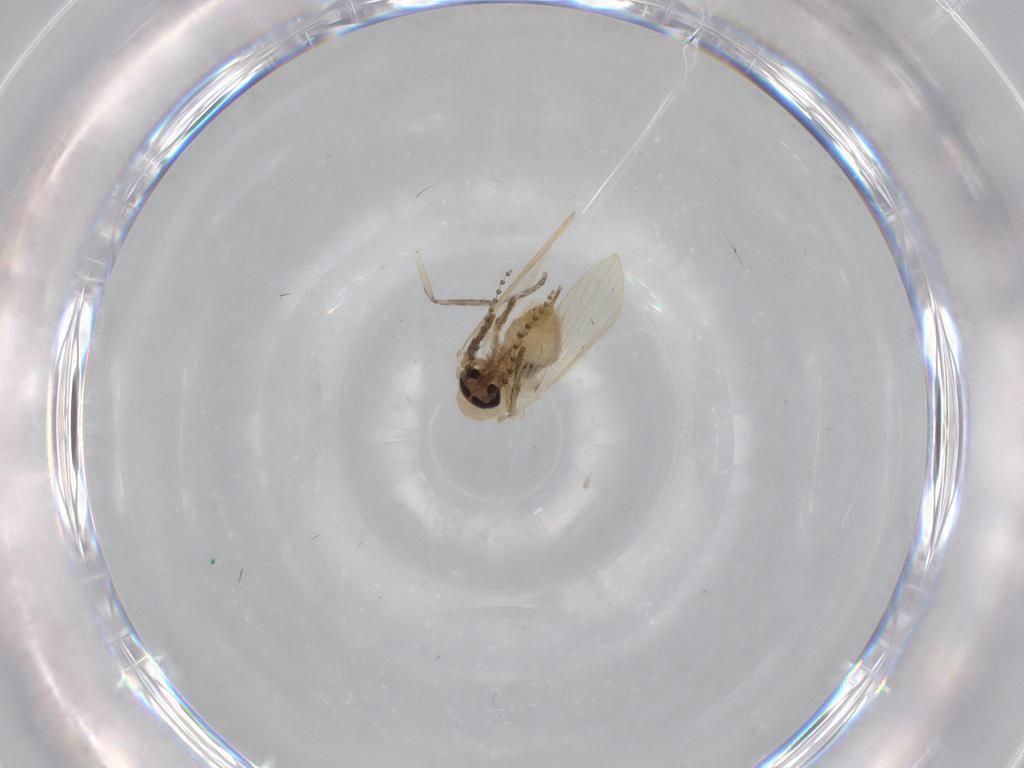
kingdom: Animalia
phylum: Arthropoda
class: Insecta
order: Diptera
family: Psychodidae
